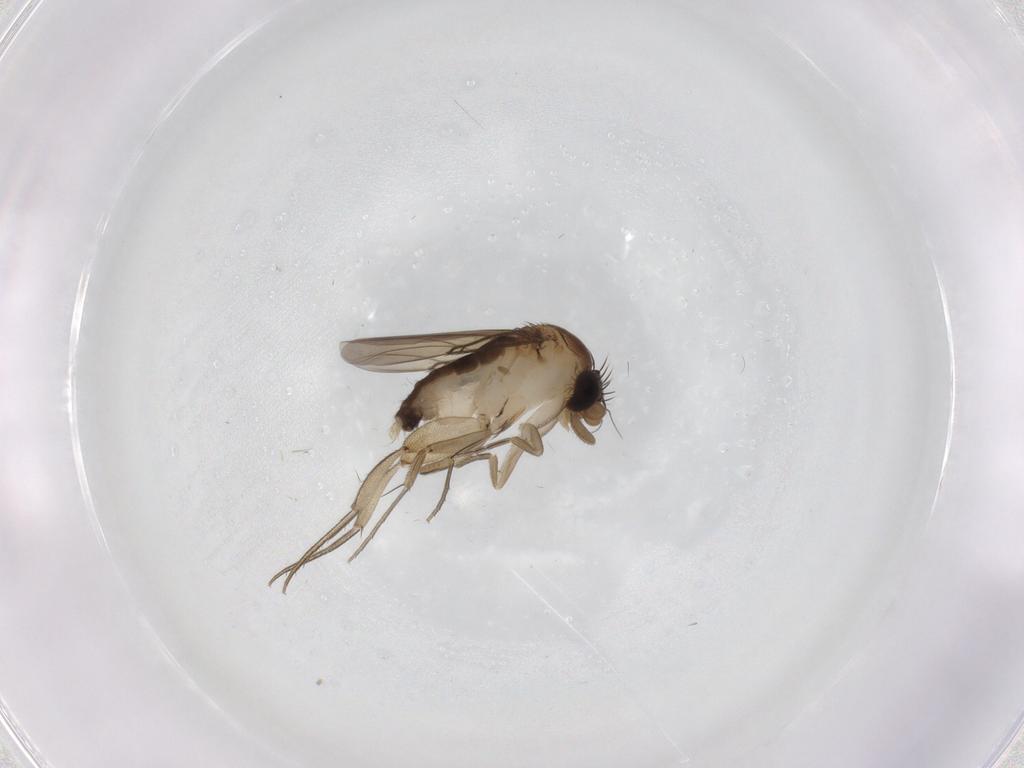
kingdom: Animalia
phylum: Arthropoda
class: Insecta
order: Diptera
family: Phoridae
